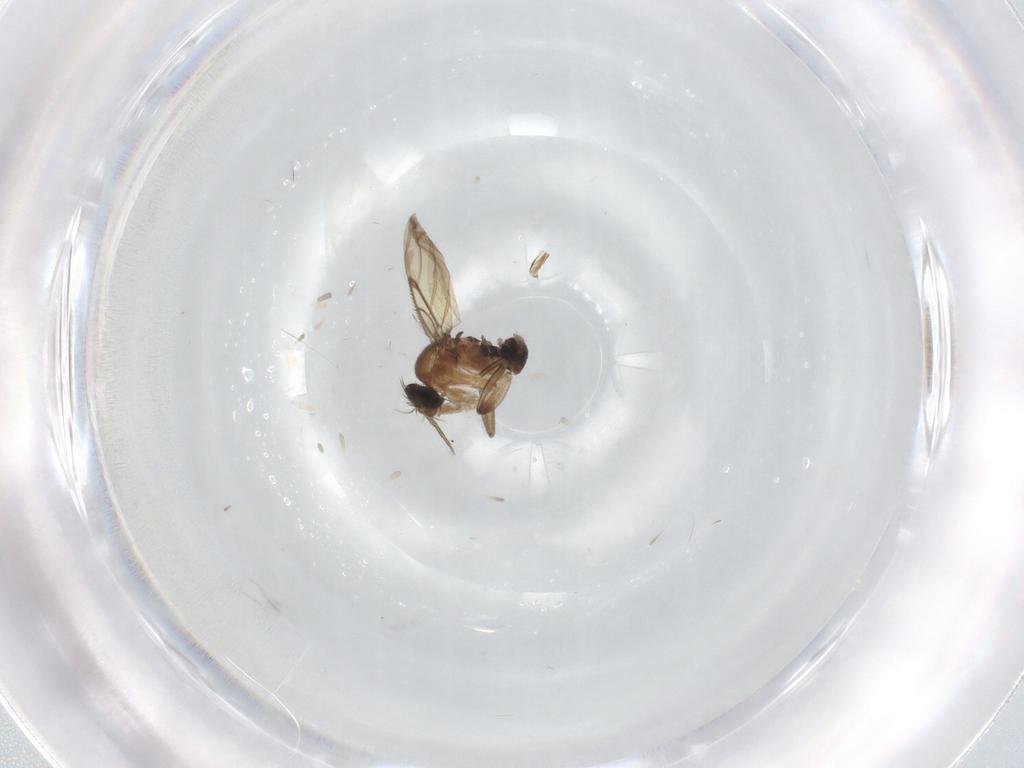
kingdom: Animalia
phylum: Arthropoda
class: Insecta
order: Diptera
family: Cecidomyiidae
